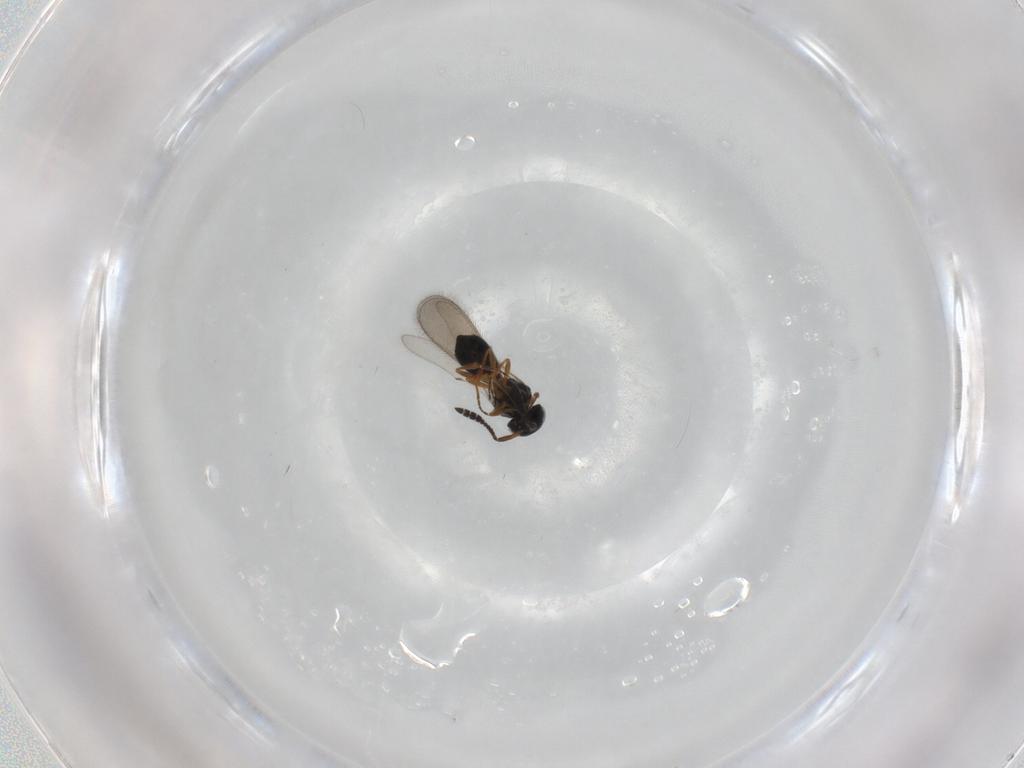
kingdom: Animalia
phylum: Arthropoda
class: Insecta
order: Hymenoptera
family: Scelionidae
